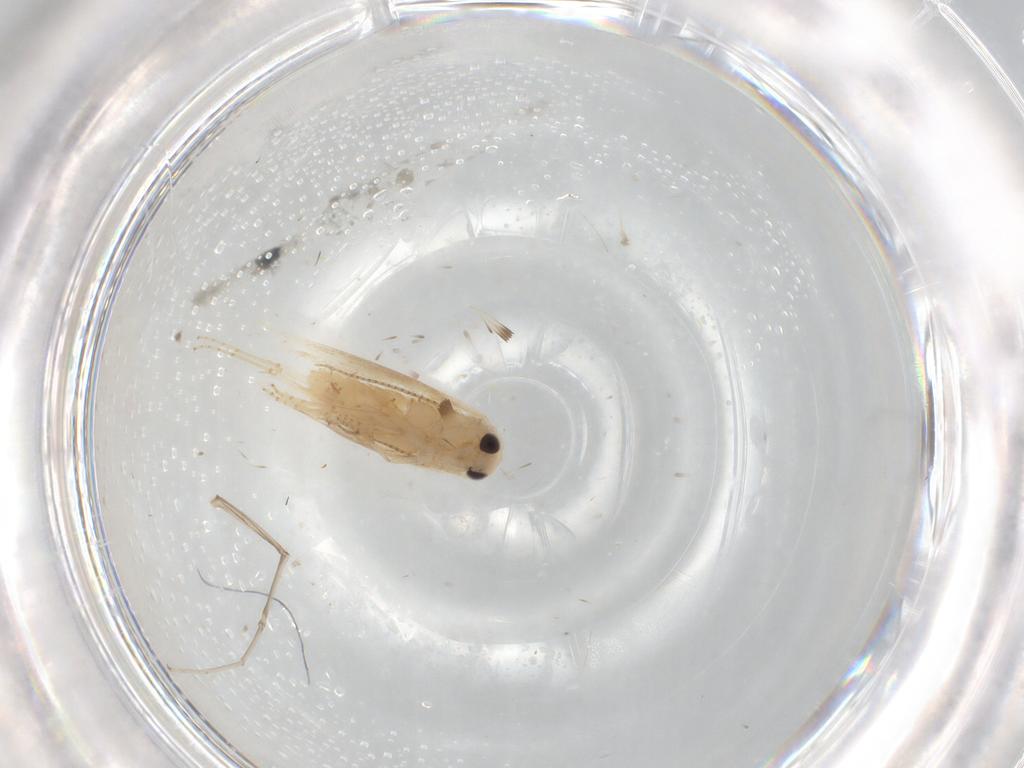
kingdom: Animalia
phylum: Arthropoda
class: Insecta
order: Lepidoptera
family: Bucculatricidae
